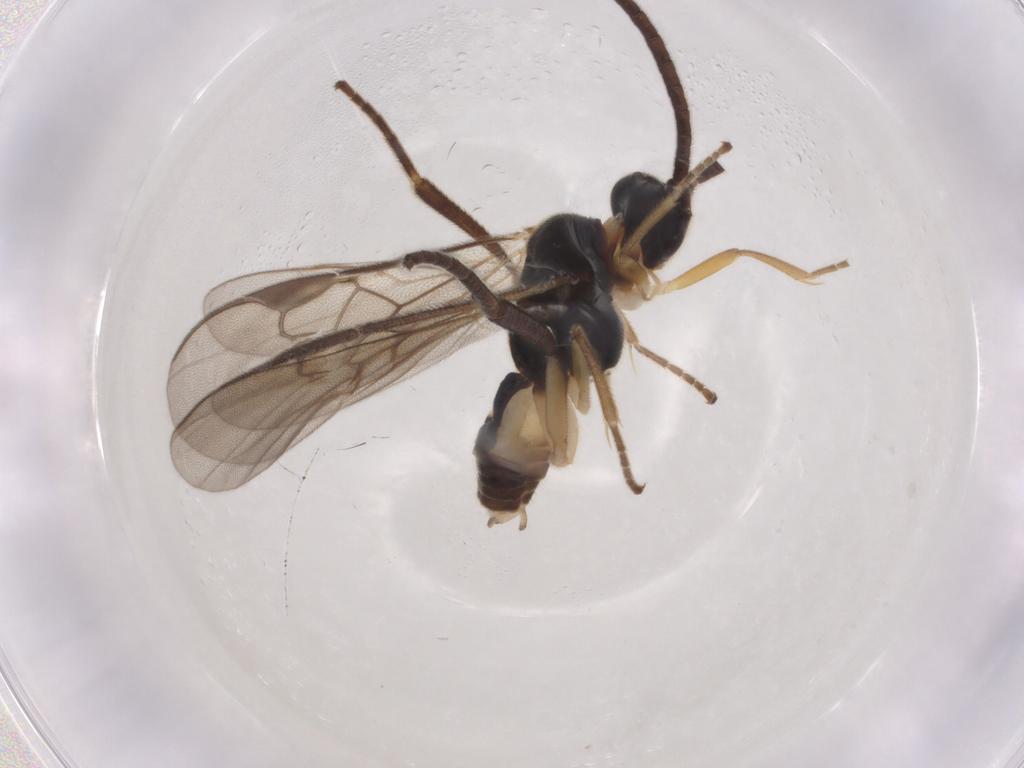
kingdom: Animalia
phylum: Arthropoda
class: Insecta
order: Hymenoptera
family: Braconidae
